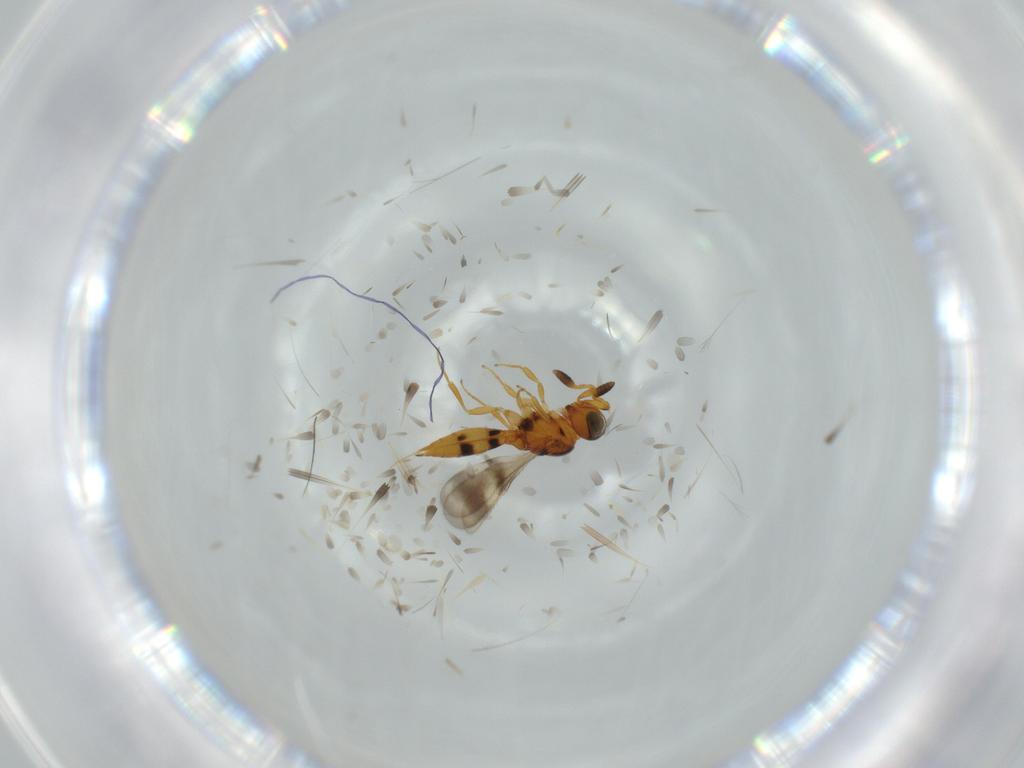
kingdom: Animalia
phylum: Arthropoda
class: Insecta
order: Hymenoptera
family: Scelionidae
